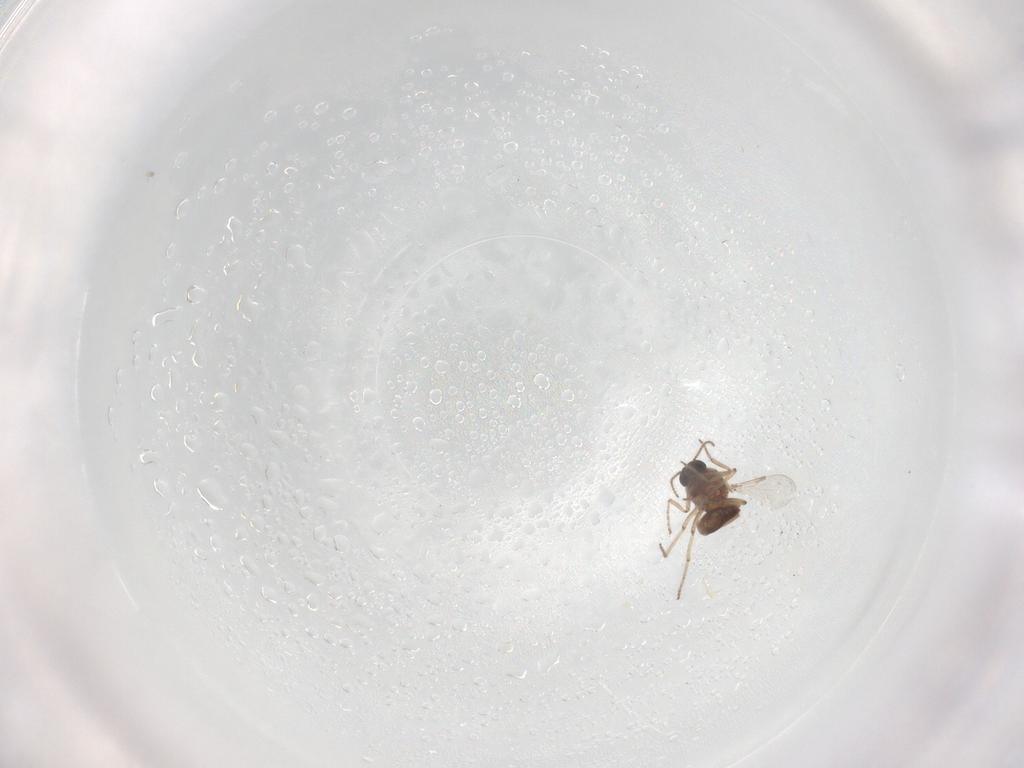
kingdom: Animalia
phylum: Arthropoda
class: Insecta
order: Diptera
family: Ceratopogonidae
